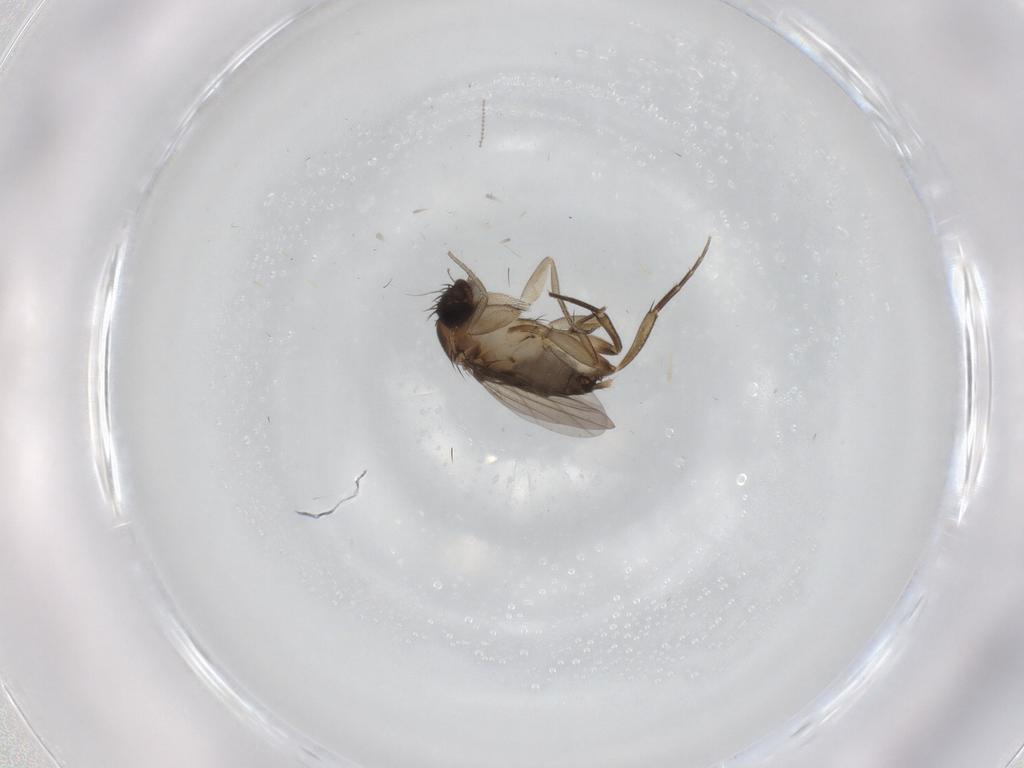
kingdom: Animalia
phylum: Arthropoda
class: Insecta
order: Diptera
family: Phoridae
